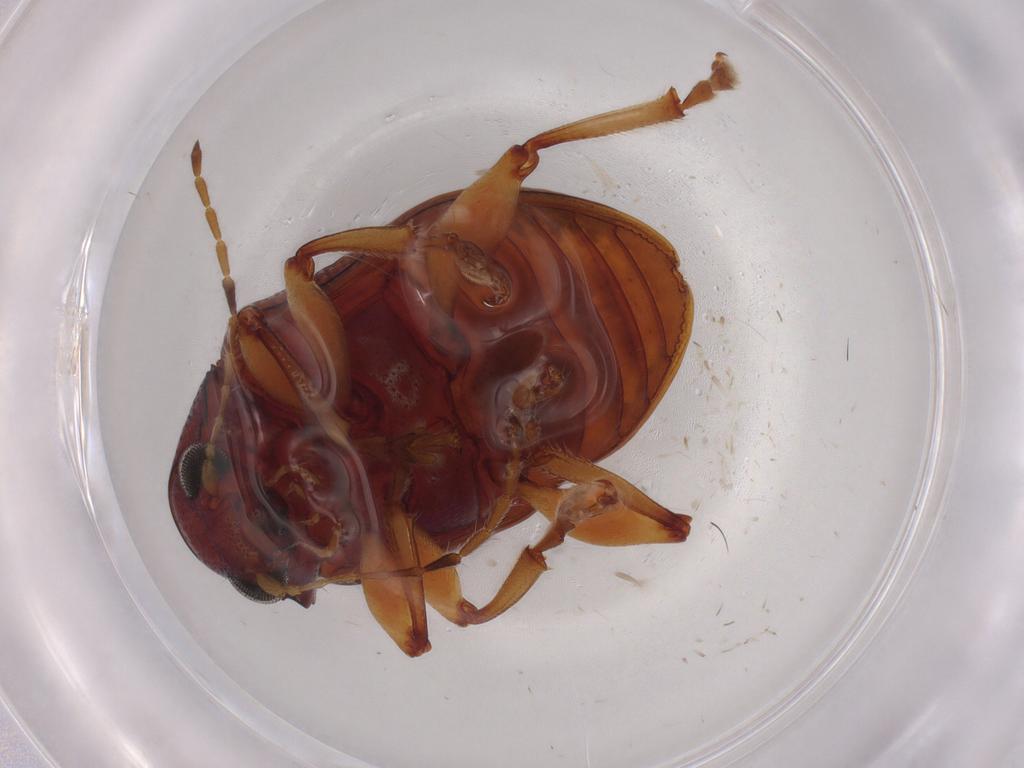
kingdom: Animalia
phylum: Arthropoda
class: Insecta
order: Coleoptera
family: Chrysomelidae
